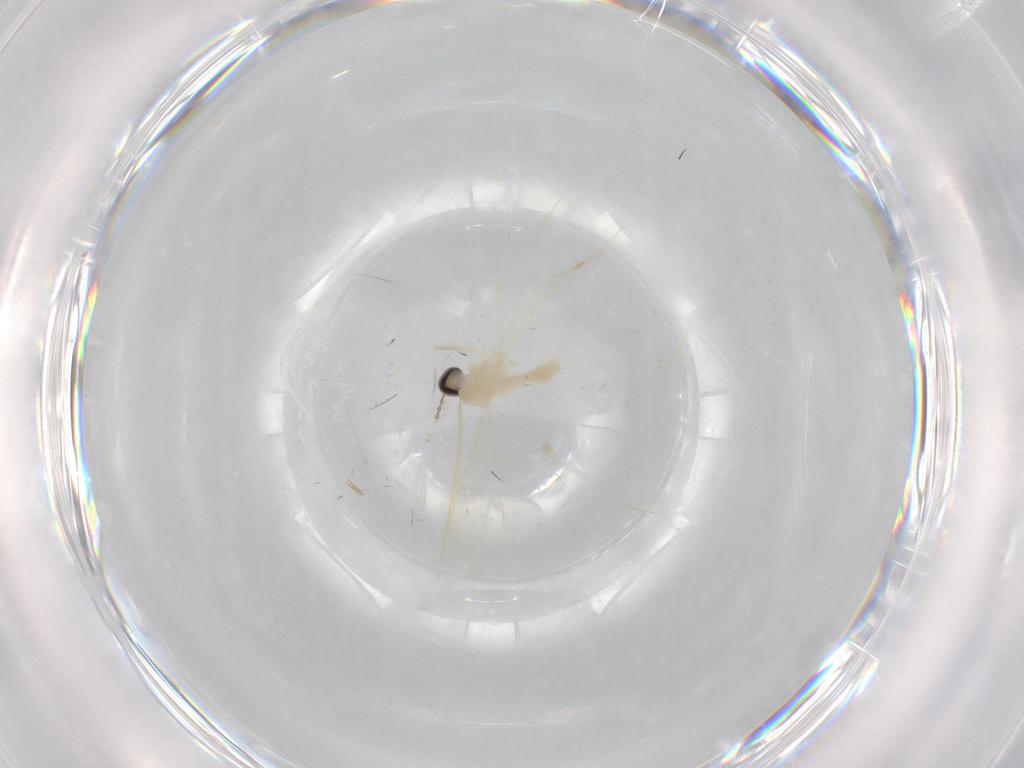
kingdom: Animalia
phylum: Arthropoda
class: Insecta
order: Diptera
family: Cecidomyiidae
